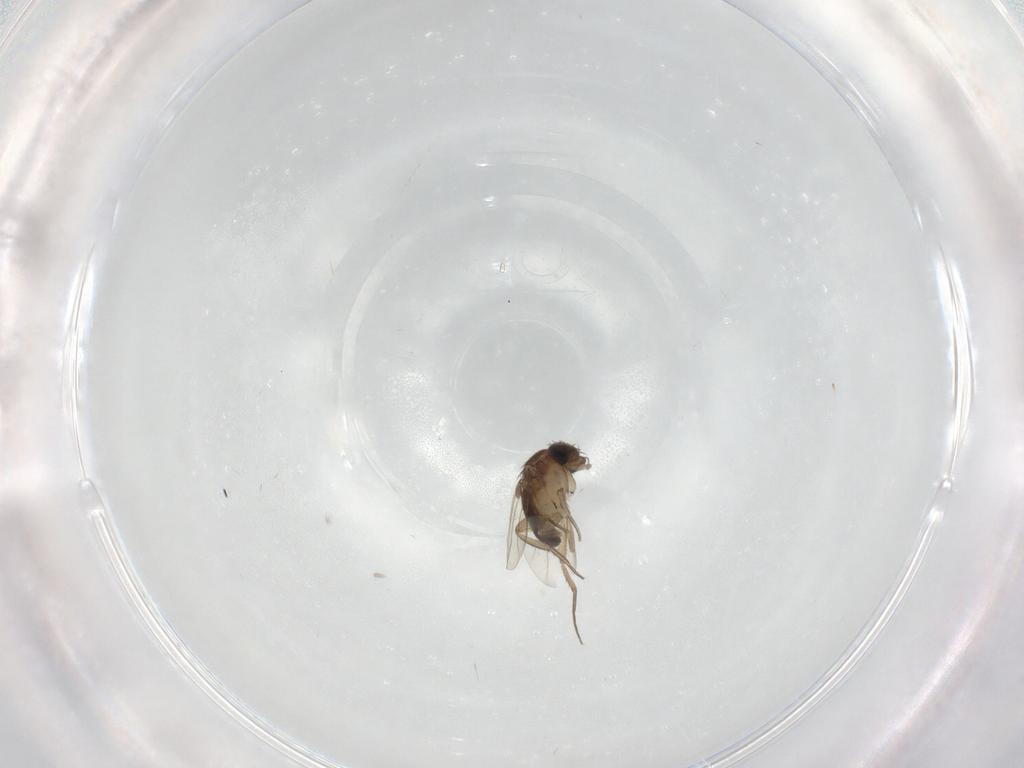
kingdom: Animalia
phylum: Arthropoda
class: Insecta
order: Diptera
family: Phoridae
